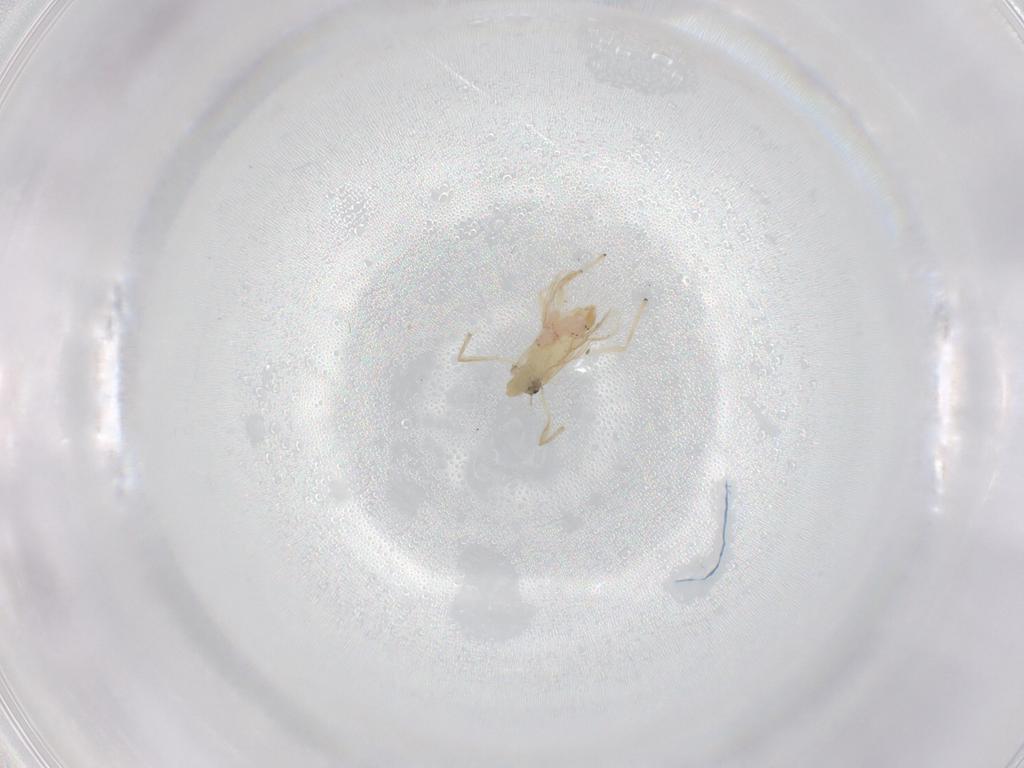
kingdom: Animalia
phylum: Arthropoda
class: Insecta
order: Diptera
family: Chironomidae
